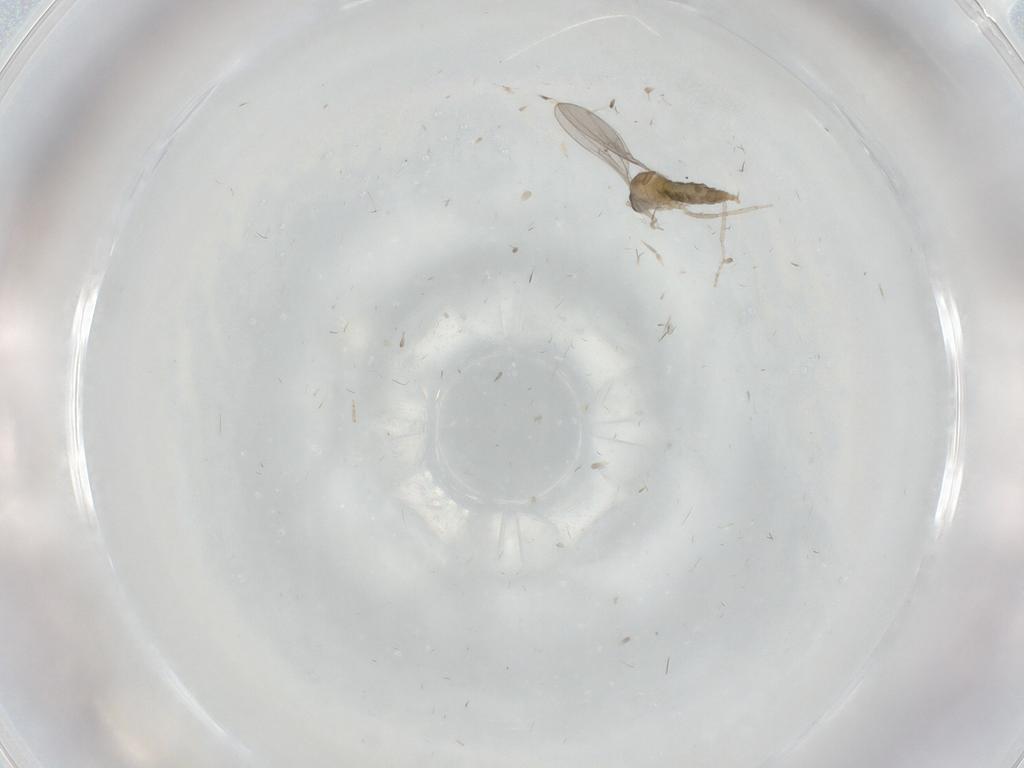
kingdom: Animalia
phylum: Arthropoda
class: Insecta
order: Diptera
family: Cecidomyiidae
